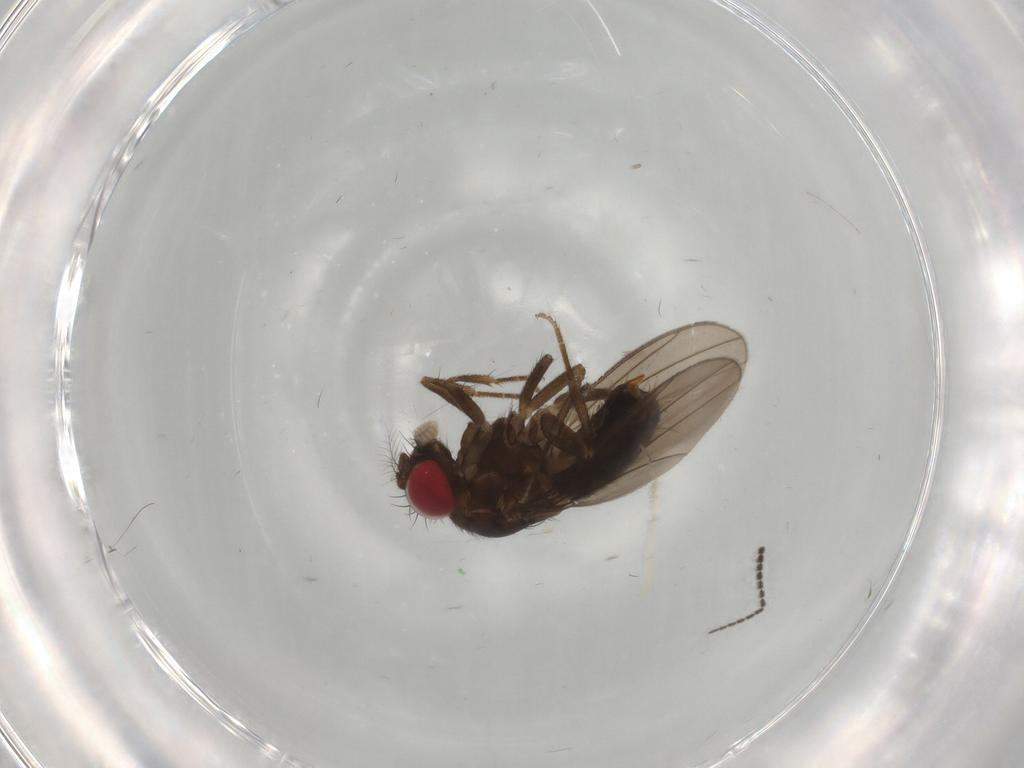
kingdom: Animalia
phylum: Arthropoda
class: Insecta
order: Diptera
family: Drosophilidae
